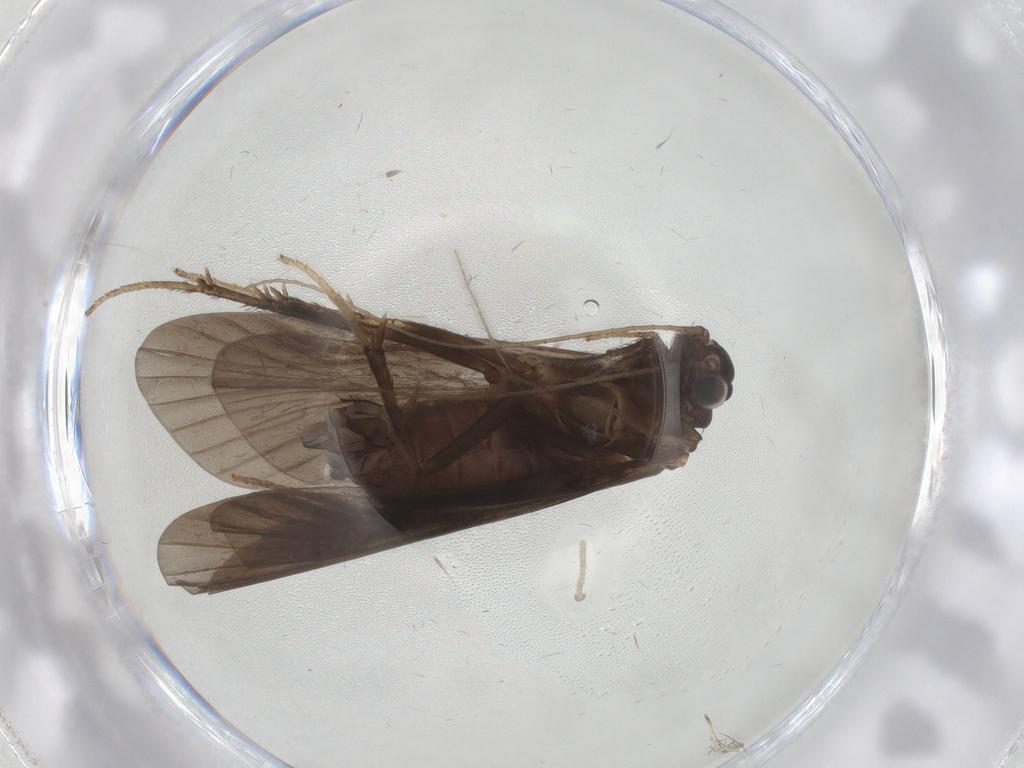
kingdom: Animalia
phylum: Arthropoda
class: Insecta
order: Trichoptera
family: Hydropsychidae
